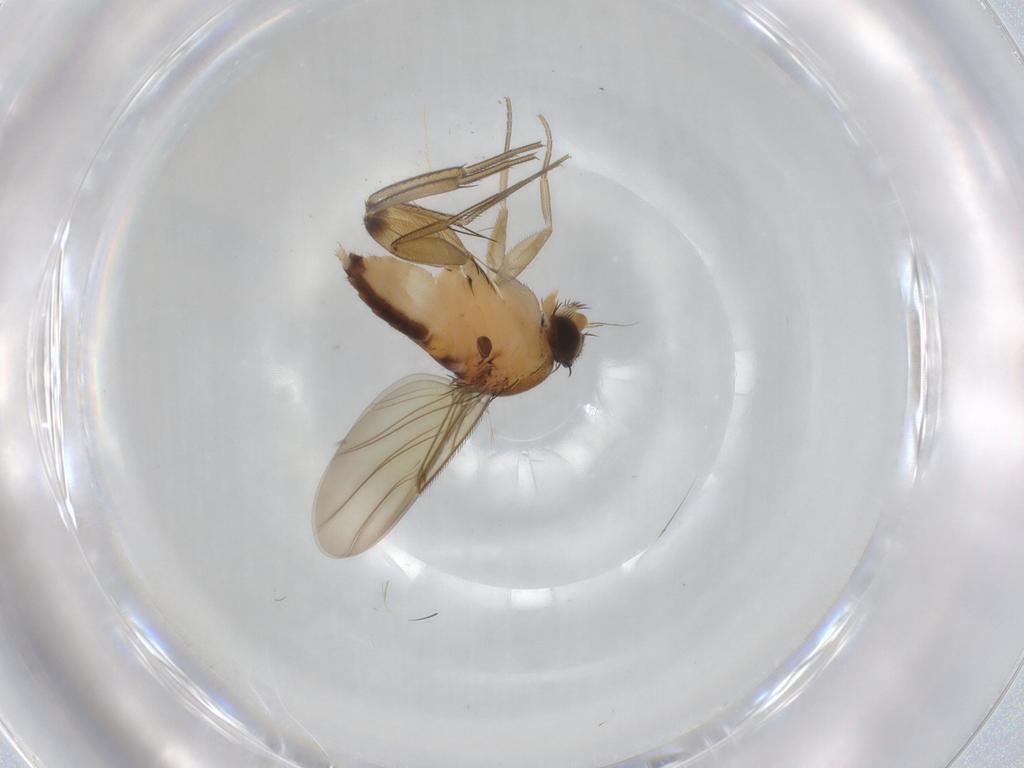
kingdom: Animalia
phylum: Arthropoda
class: Insecta
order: Diptera
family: Phoridae
